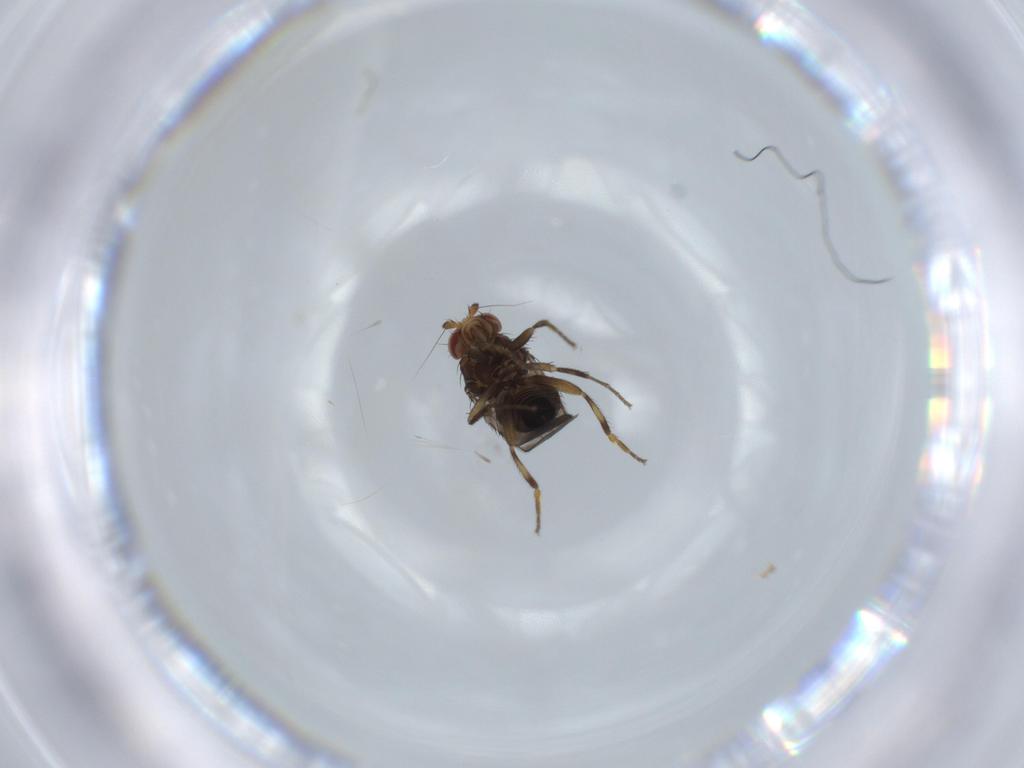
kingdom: Animalia
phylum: Arthropoda
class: Insecta
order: Diptera
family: Sphaeroceridae
